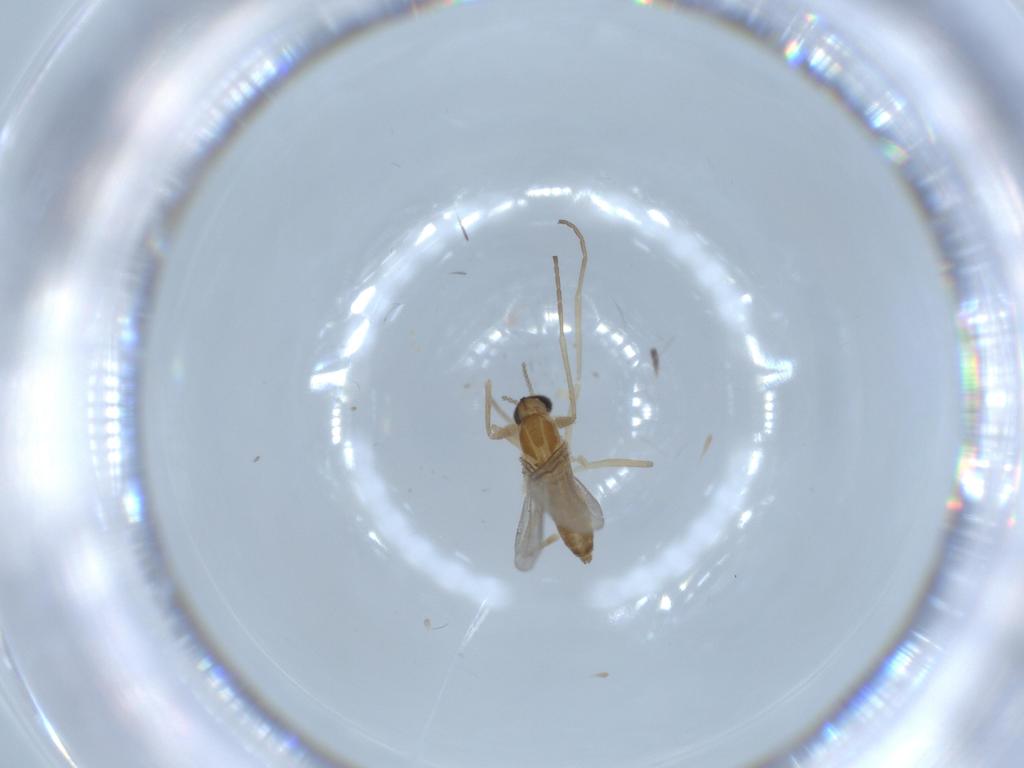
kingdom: Animalia
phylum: Arthropoda
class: Insecta
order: Diptera
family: Cecidomyiidae
